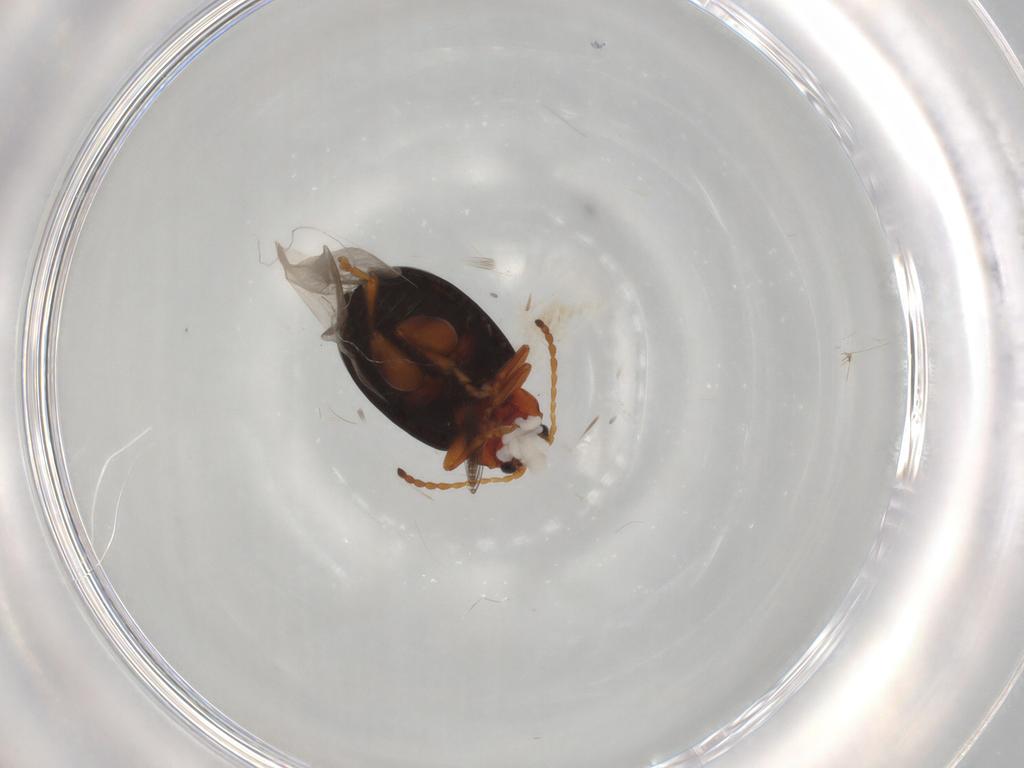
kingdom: Animalia
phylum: Arthropoda
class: Insecta
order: Coleoptera
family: Chrysomelidae
